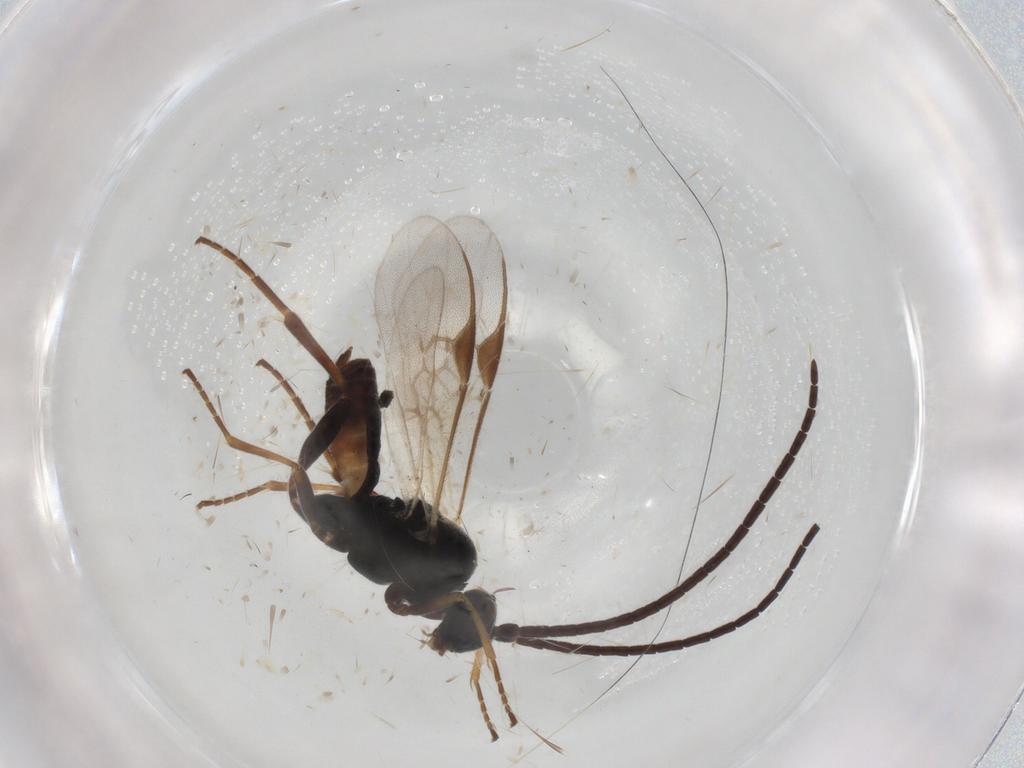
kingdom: Animalia
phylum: Arthropoda
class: Insecta
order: Hymenoptera
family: Braconidae
